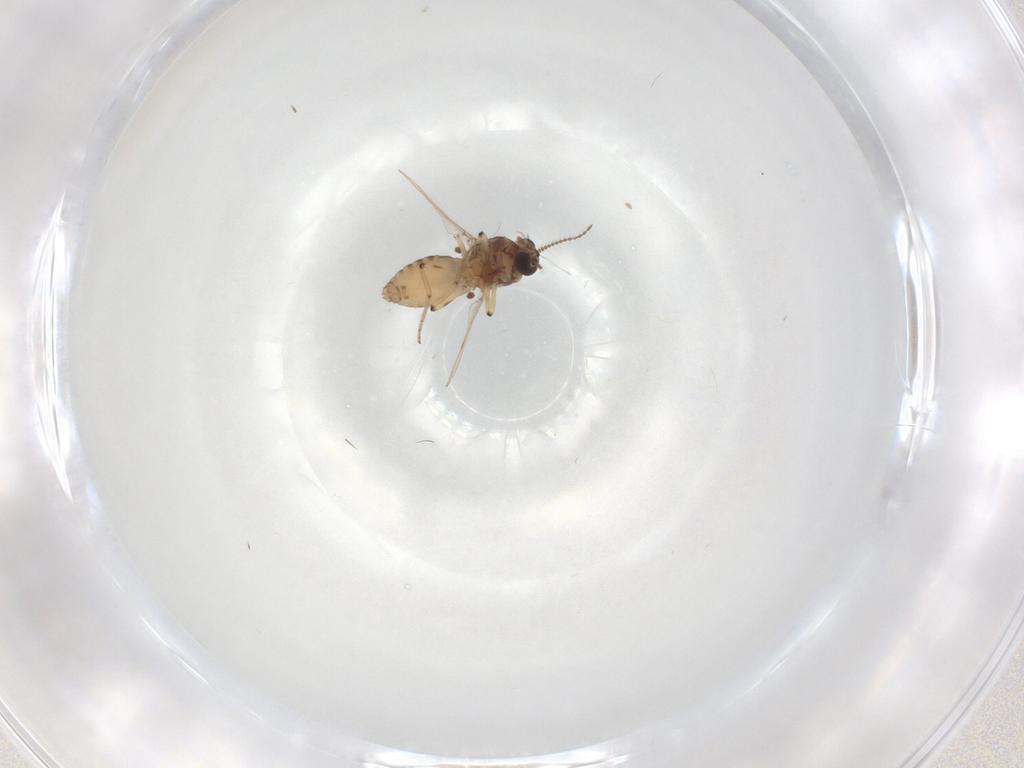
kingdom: Animalia
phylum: Arthropoda
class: Insecta
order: Diptera
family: Ceratopogonidae
